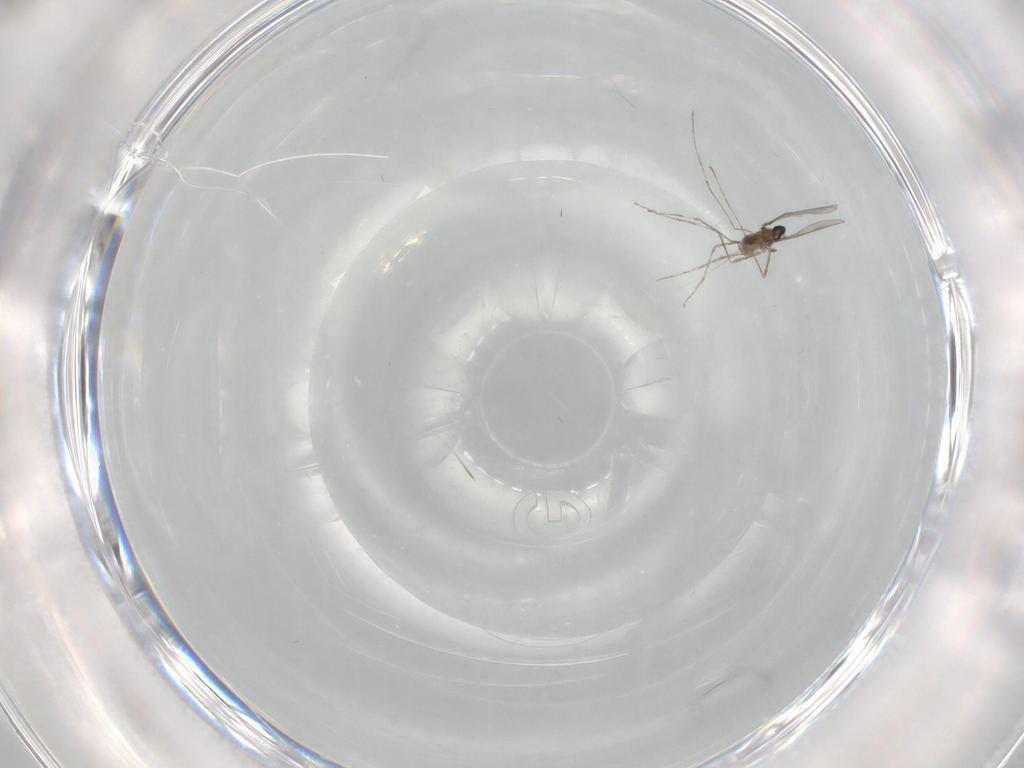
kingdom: Animalia
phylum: Arthropoda
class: Insecta
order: Diptera
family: Cecidomyiidae
